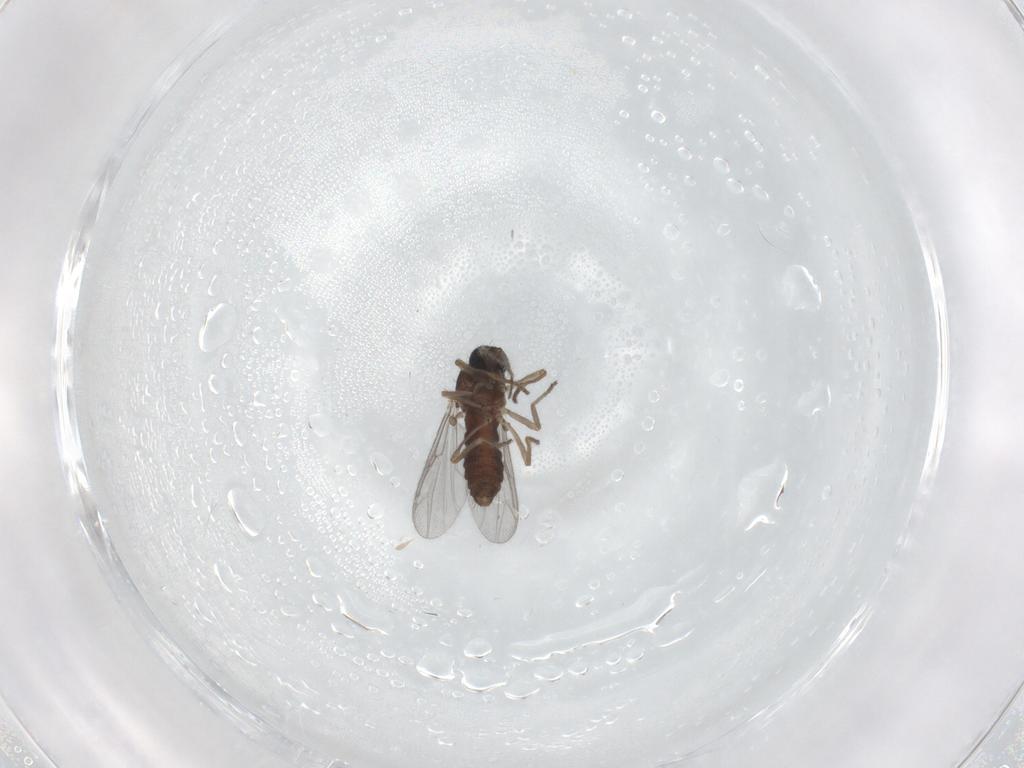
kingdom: Animalia
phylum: Arthropoda
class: Insecta
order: Diptera
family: Ceratopogonidae
